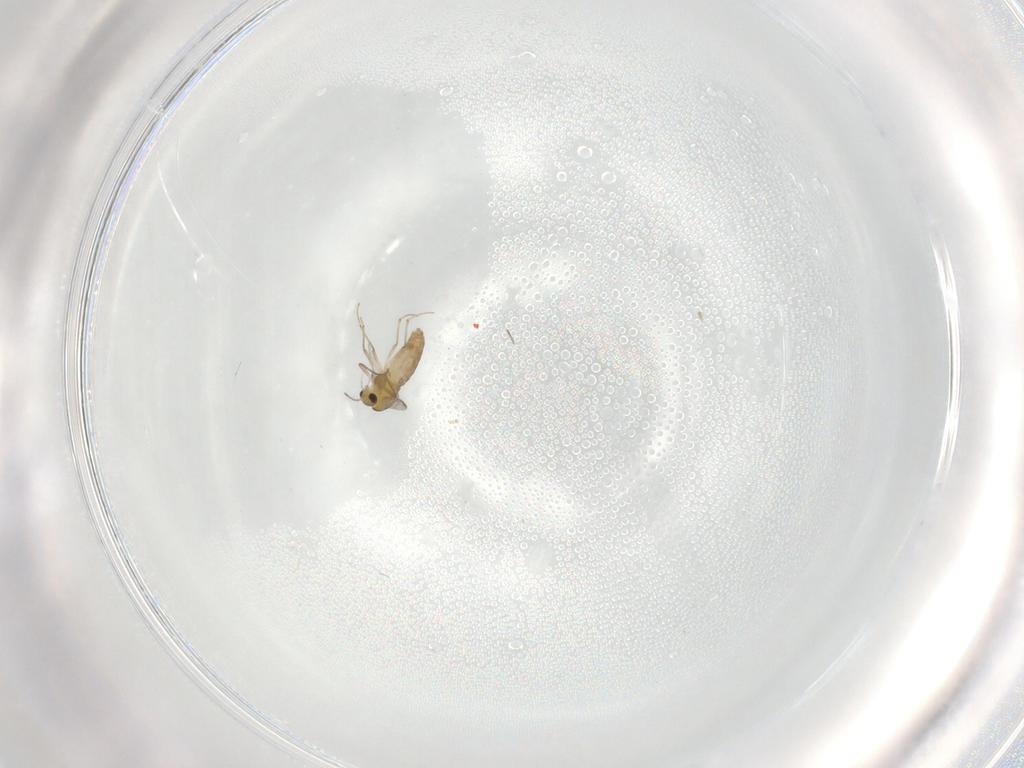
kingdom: Animalia
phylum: Arthropoda
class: Insecta
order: Diptera
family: Chironomidae
